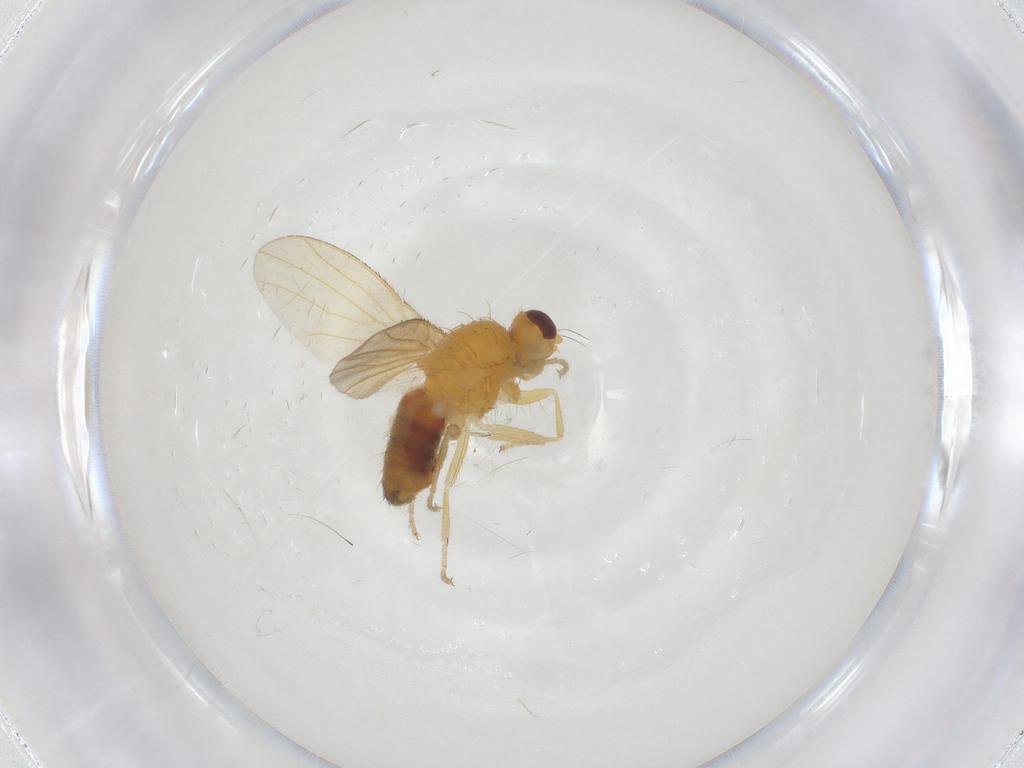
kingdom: Animalia
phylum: Arthropoda
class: Insecta
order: Diptera
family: Heleomyzidae
